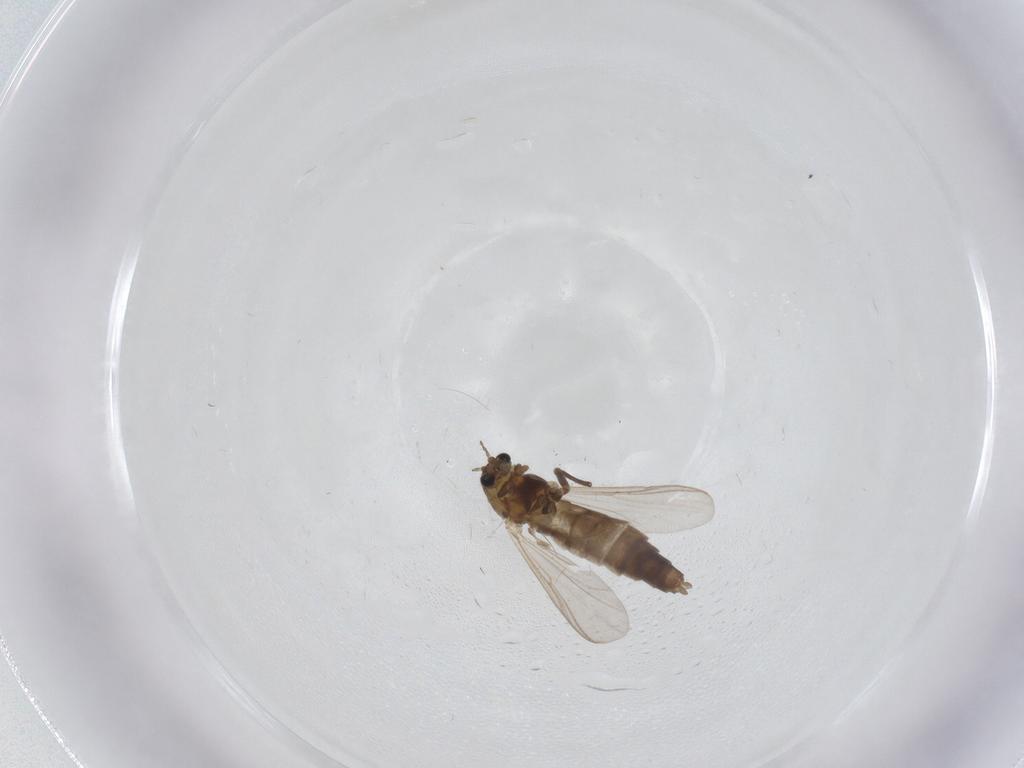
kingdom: Animalia
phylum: Arthropoda
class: Insecta
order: Diptera
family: Chironomidae
